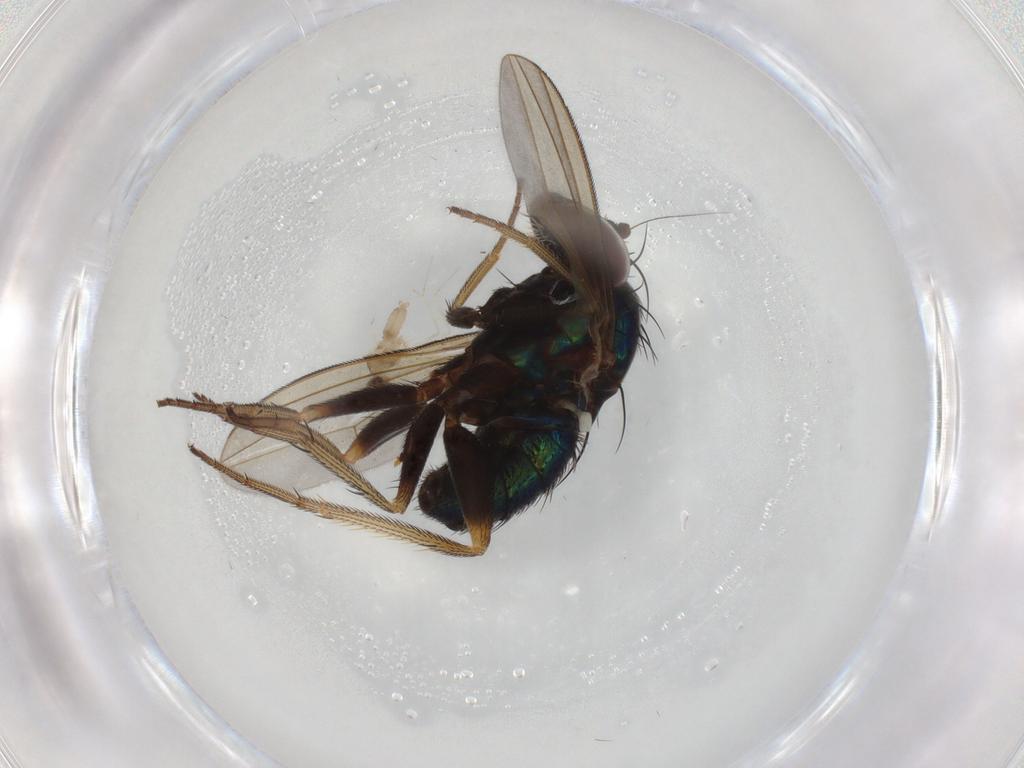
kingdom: Animalia
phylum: Arthropoda
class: Insecta
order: Diptera
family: Dolichopodidae
